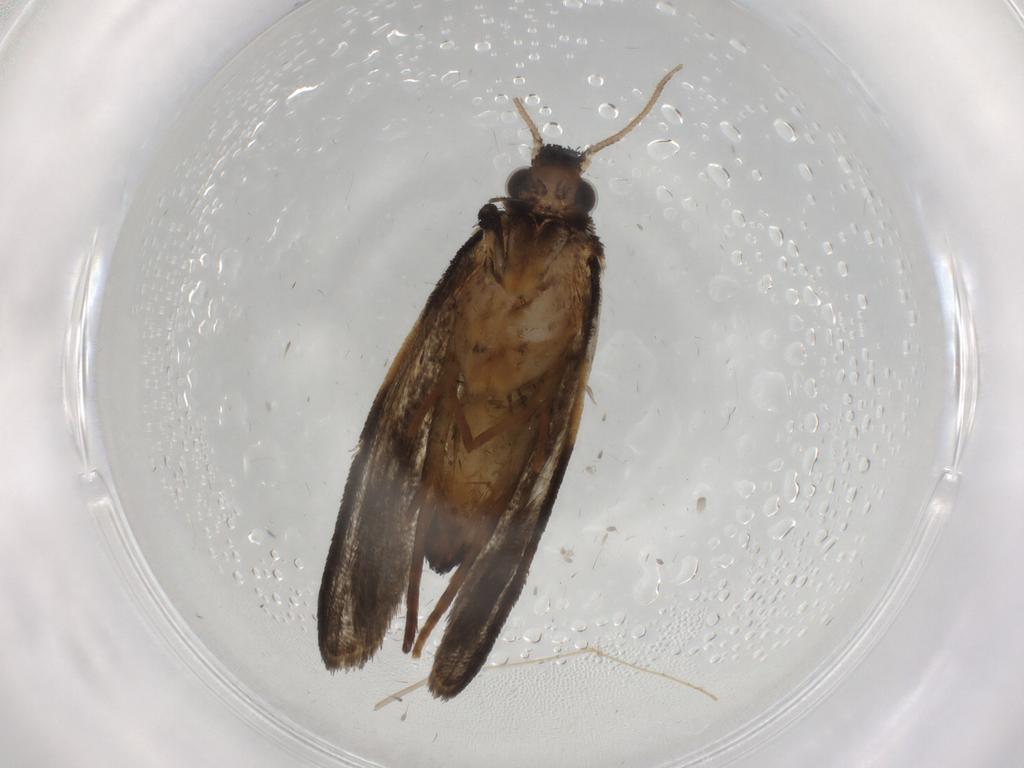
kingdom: Animalia
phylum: Arthropoda
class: Insecta
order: Lepidoptera
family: Psychidae
